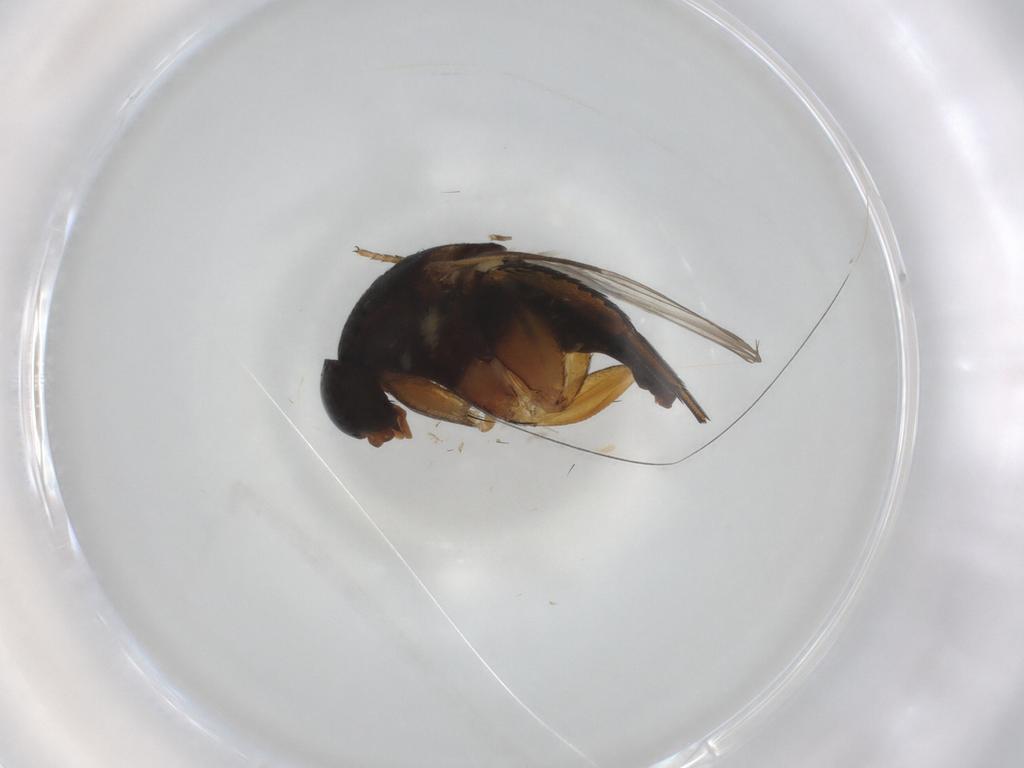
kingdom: Animalia
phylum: Arthropoda
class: Insecta
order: Diptera
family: Phoridae
